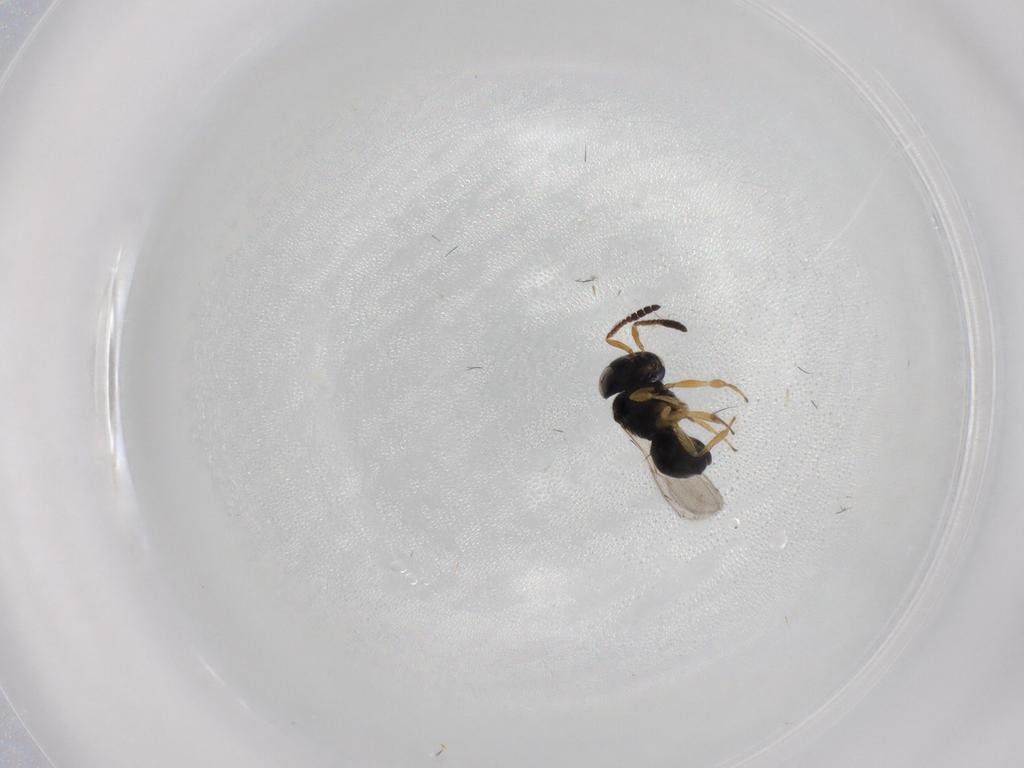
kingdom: Animalia
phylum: Arthropoda
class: Insecta
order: Hymenoptera
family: Scelionidae
